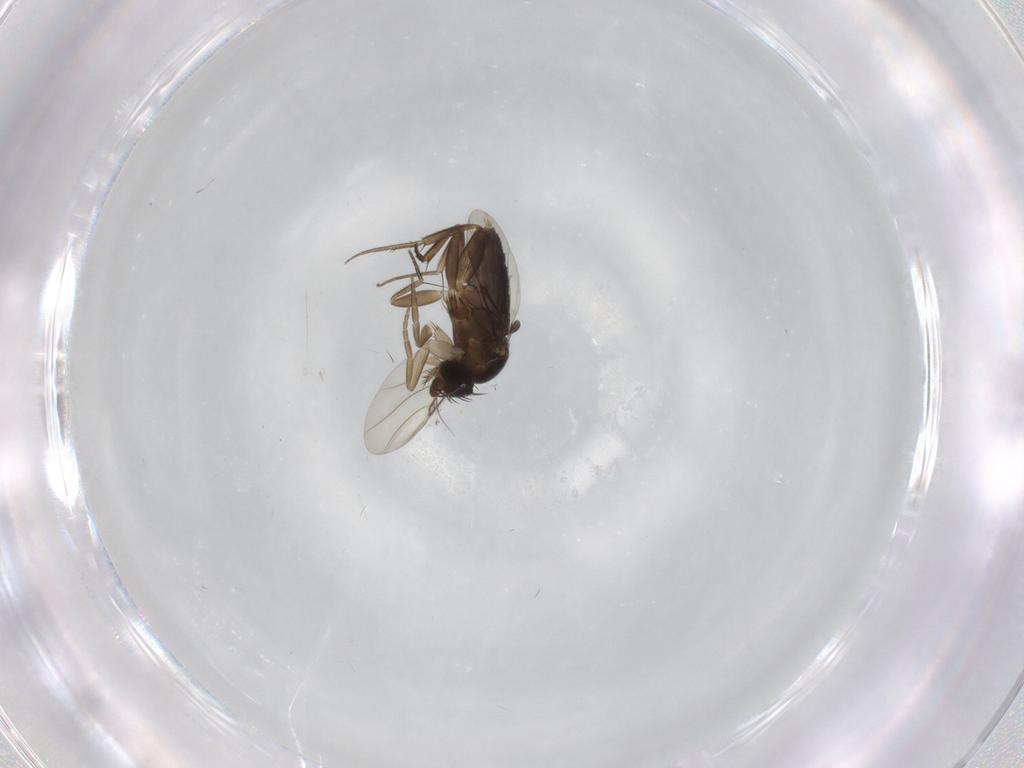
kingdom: Animalia
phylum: Arthropoda
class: Insecta
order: Diptera
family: Phoridae
